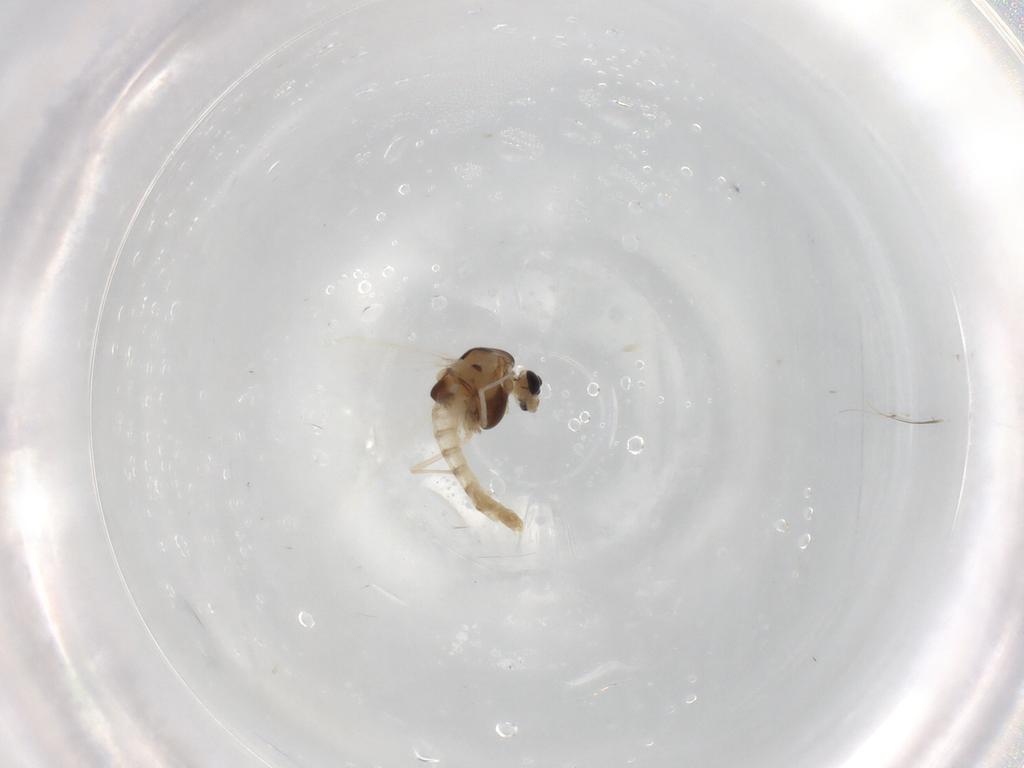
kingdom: Animalia
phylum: Arthropoda
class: Insecta
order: Diptera
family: Chironomidae
